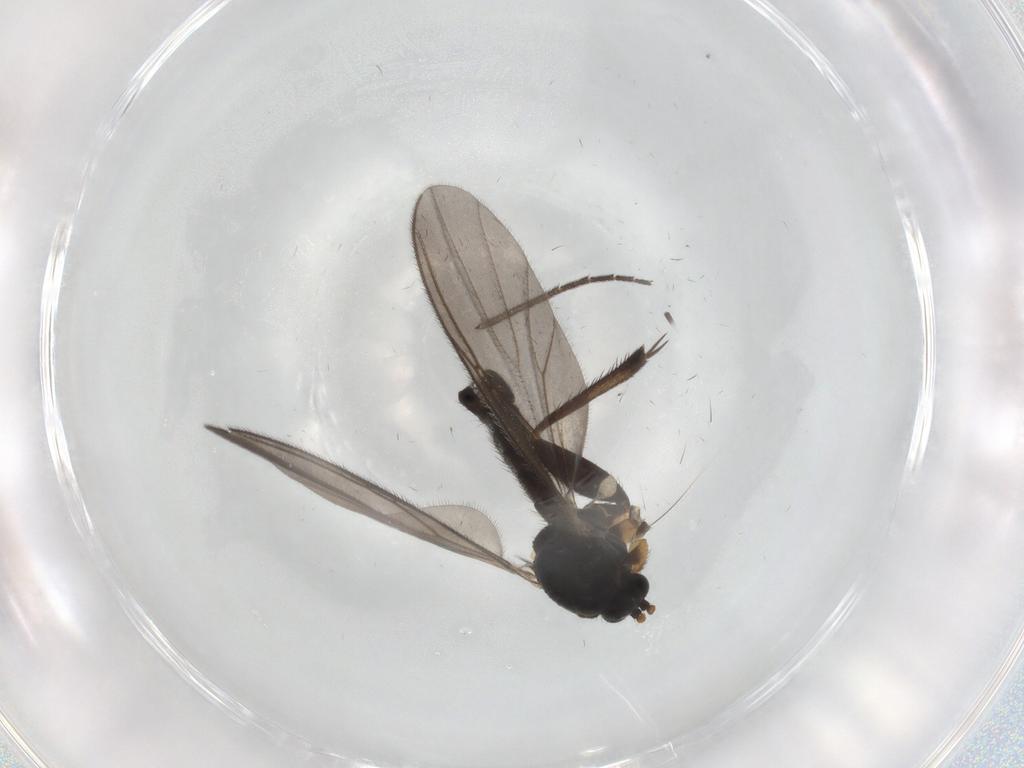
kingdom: Animalia
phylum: Arthropoda
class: Insecta
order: Diptera
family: Mycetophilidae
